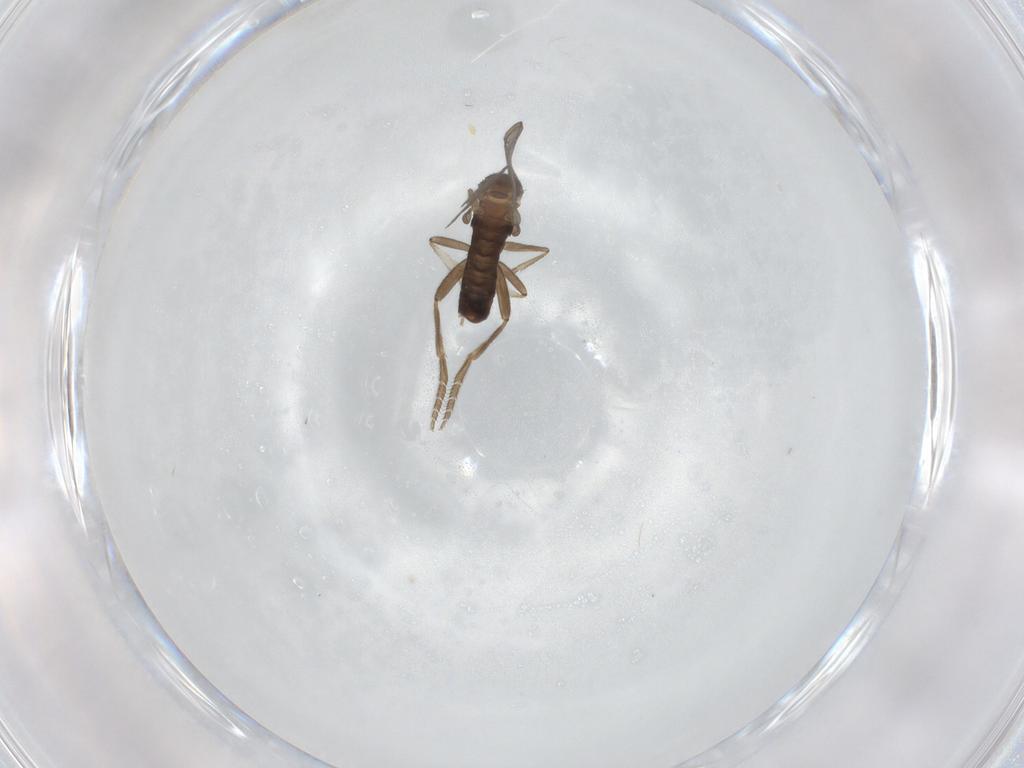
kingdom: Animalia
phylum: Arthropoda
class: Insecta
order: Diptera
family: Phoridae
